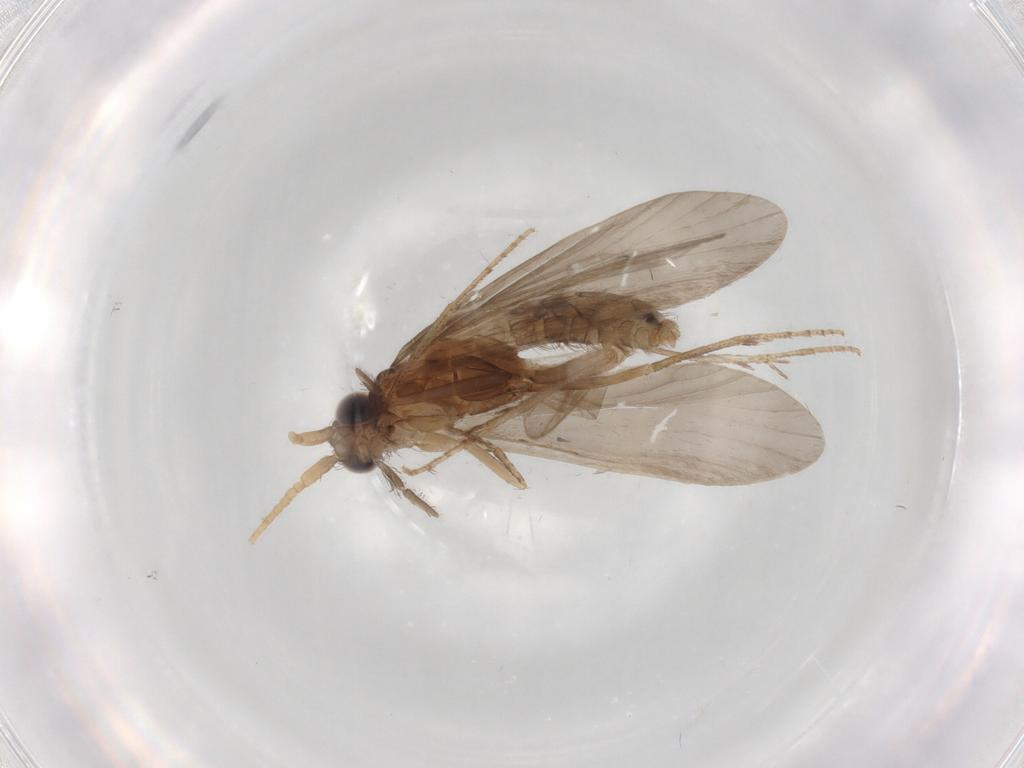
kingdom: Animalia
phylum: Arthropoda
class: Insecta
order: Trichoptera
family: Helicopsychidae
